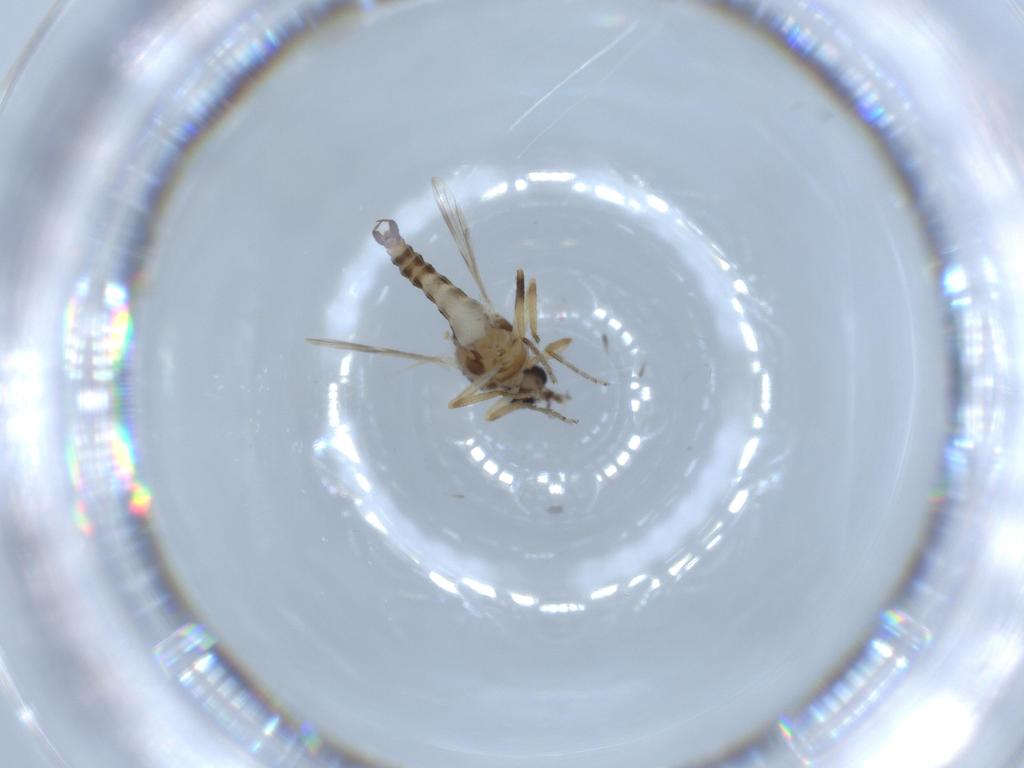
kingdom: Animalia
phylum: Arthropoda
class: Insecta
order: Diptera
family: Ceratopogonidae
